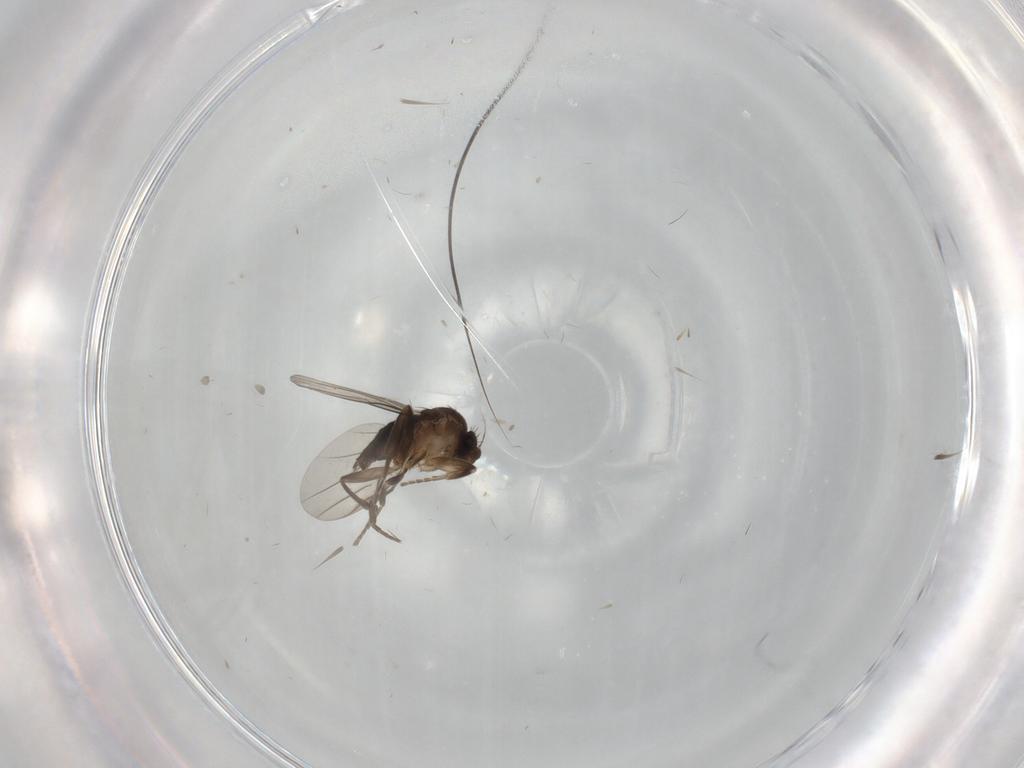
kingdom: Animalia
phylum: Arthropoda
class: Insecta
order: Diptera
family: Phoridae
